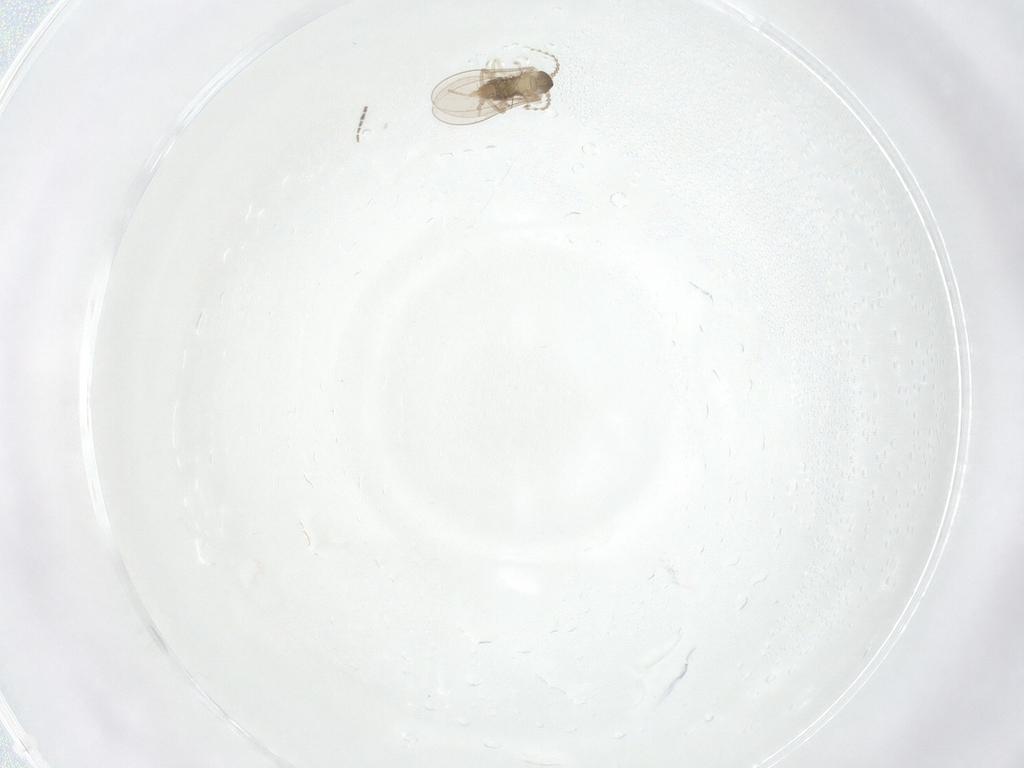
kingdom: Animalia
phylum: Arthropoda
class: Insecta
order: Diptera
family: Cecidomyiidae
